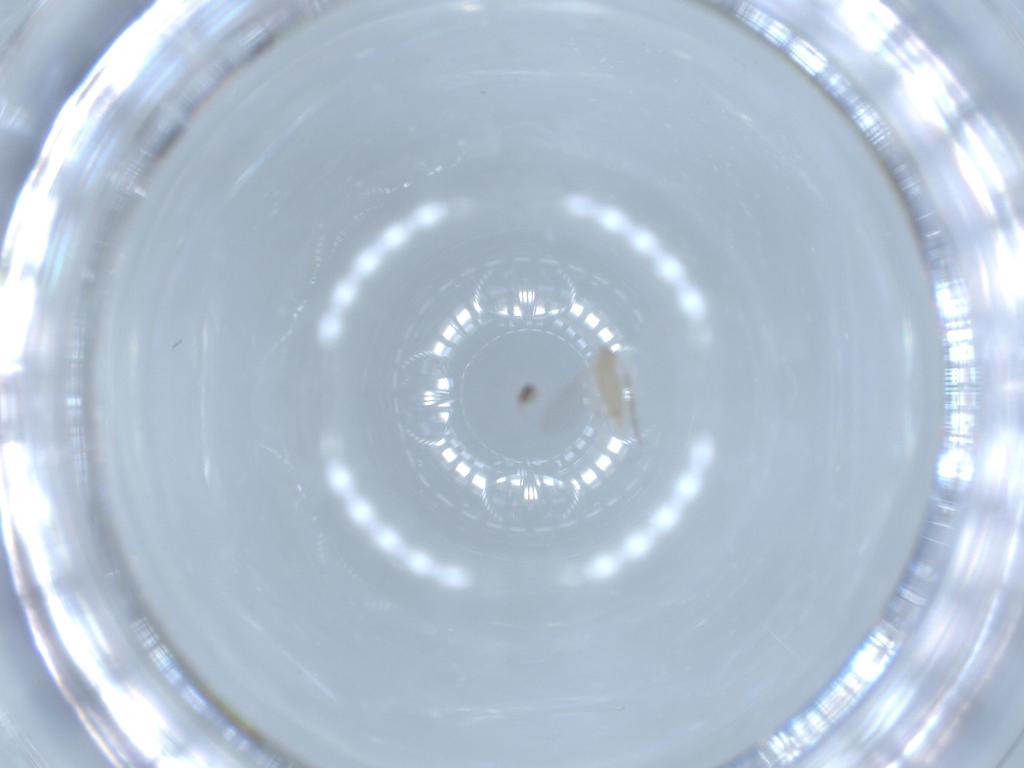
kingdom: Animalia
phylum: Arthropoda
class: Insecta
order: Diptera
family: Cecidomyiidae
